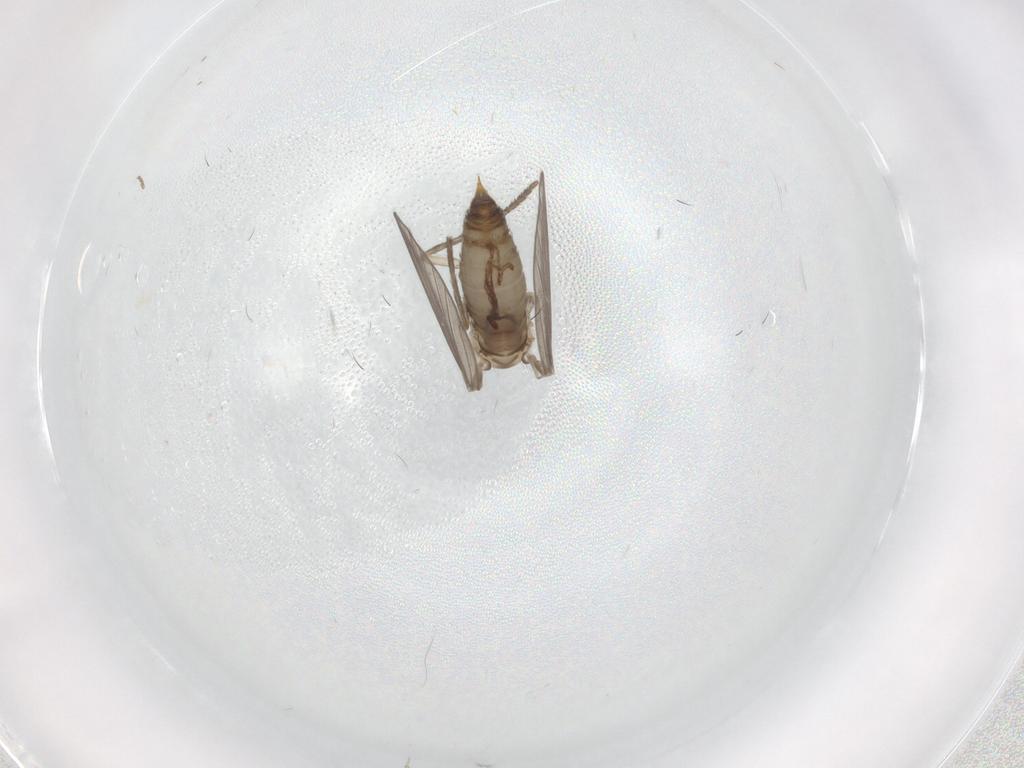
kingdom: Animalia
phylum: Arthropoda
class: Insecta
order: Diptera
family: Psychodidae
